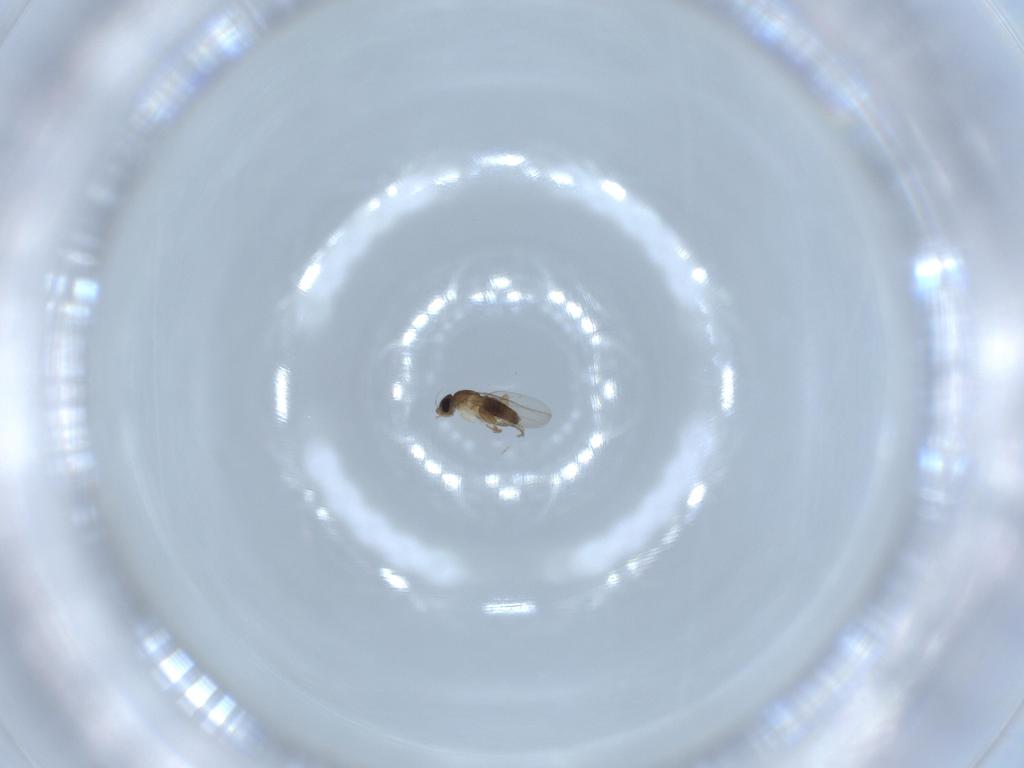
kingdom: Animalia
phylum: Arthropoda
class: Insecta
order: Diptera
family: Phoridae
